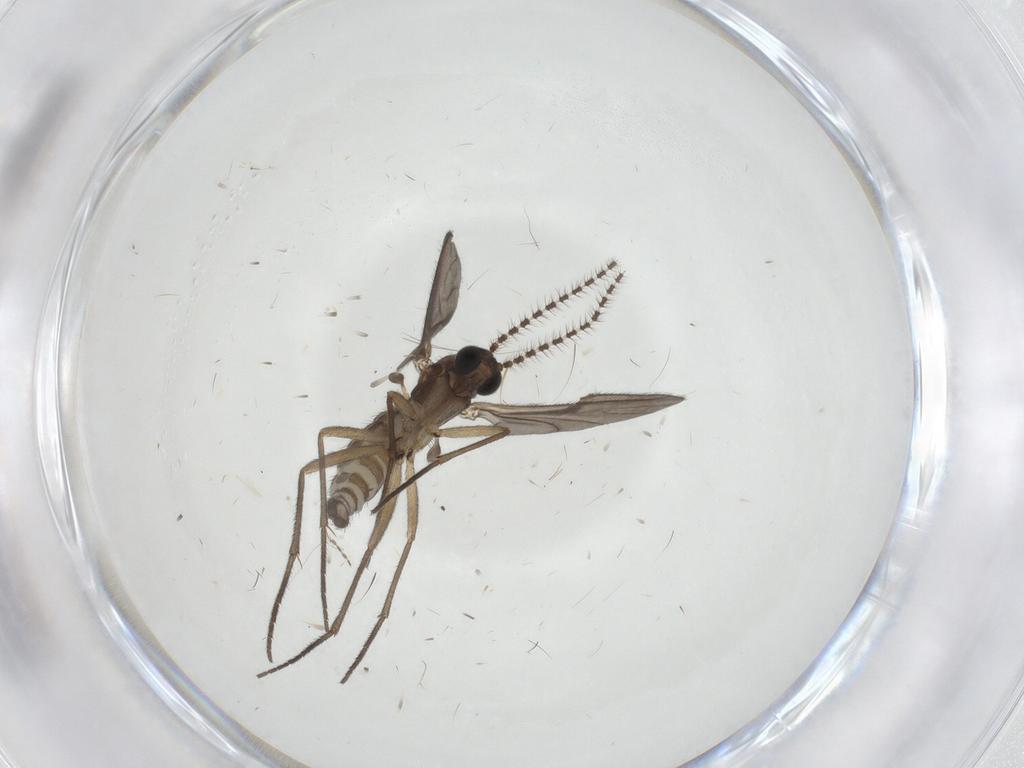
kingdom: Animalia
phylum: Arthropoda
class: Insecta
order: Diptera
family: Sciaridae
